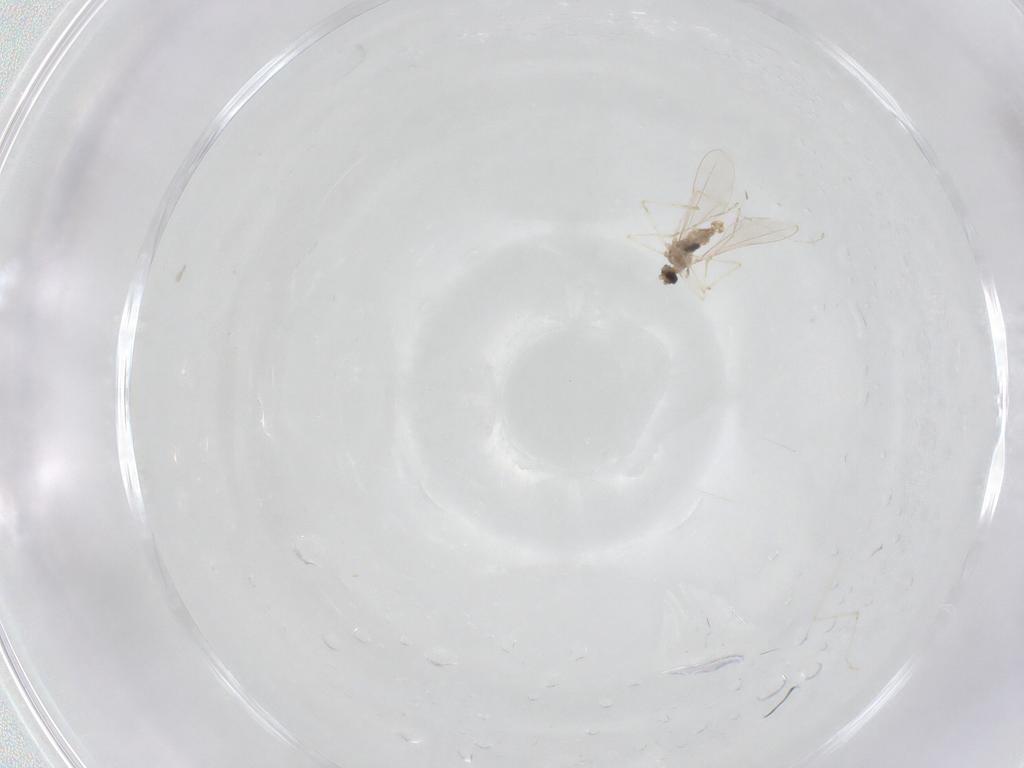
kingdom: Animalia
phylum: Arthropoda
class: Insecta
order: Diptera
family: Cecidomyiidae
